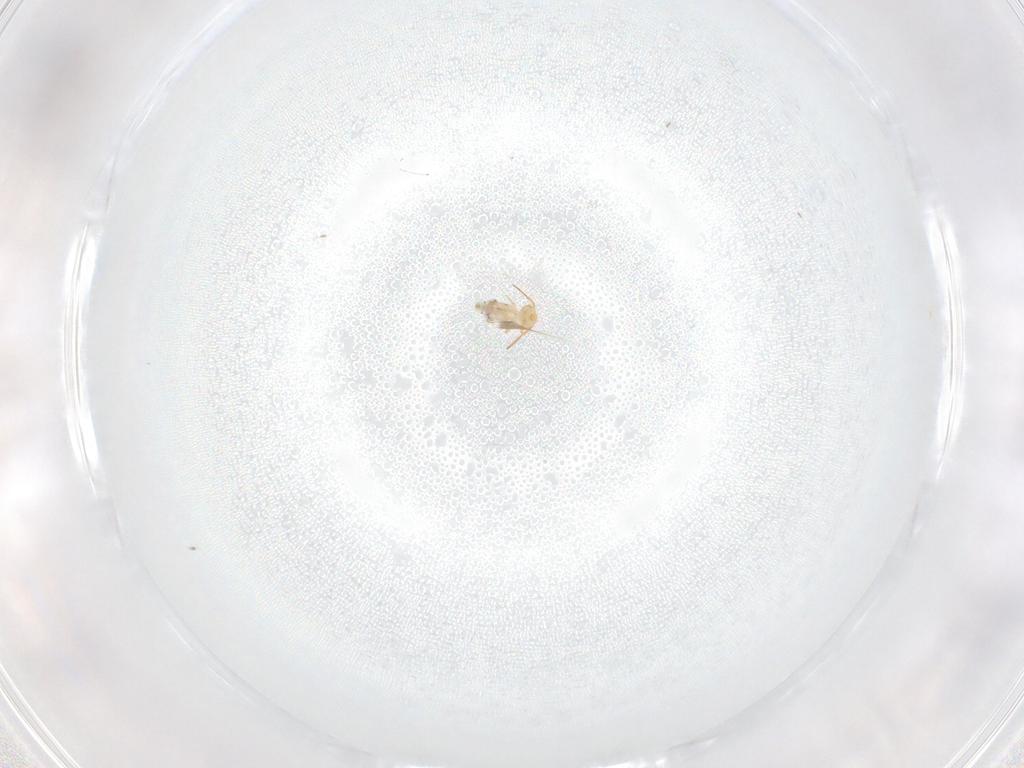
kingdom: Animalia
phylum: Arthropoda
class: Collembola
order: Symphypleona
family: Bourletiellidae
